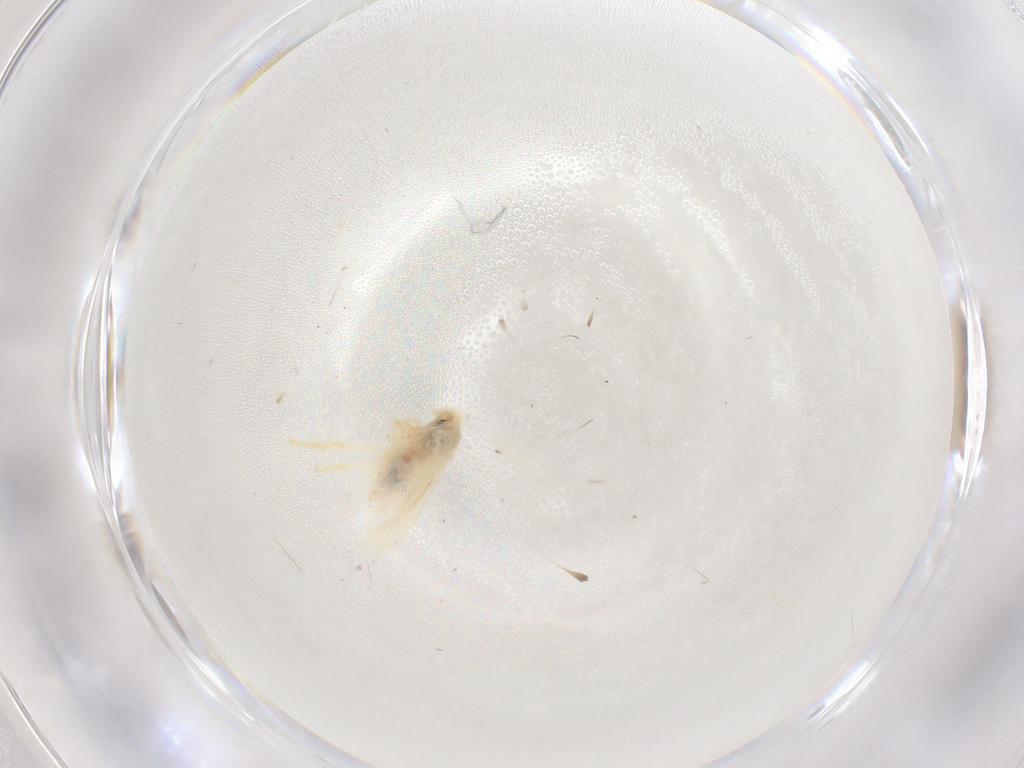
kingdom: Animalia
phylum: Arthropoda
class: Insecta
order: Lepidoptera
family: Nepticulidae
